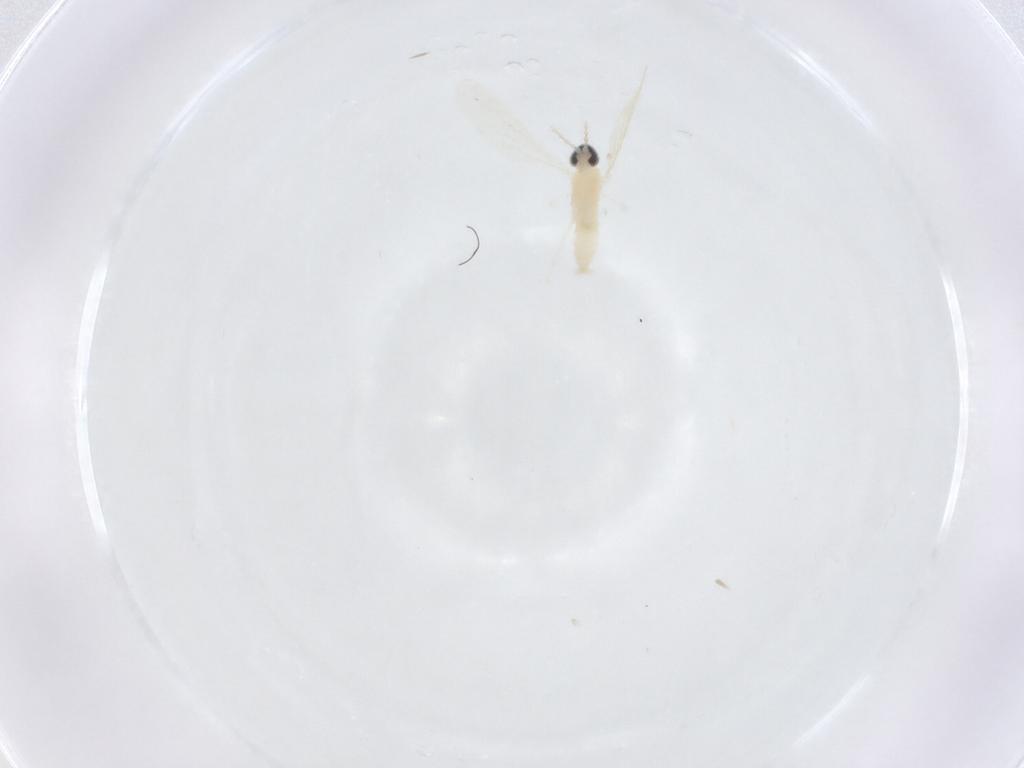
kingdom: Animalia
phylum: Arthropoda
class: Insecta
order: Diptera
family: Cecidomyiidae
